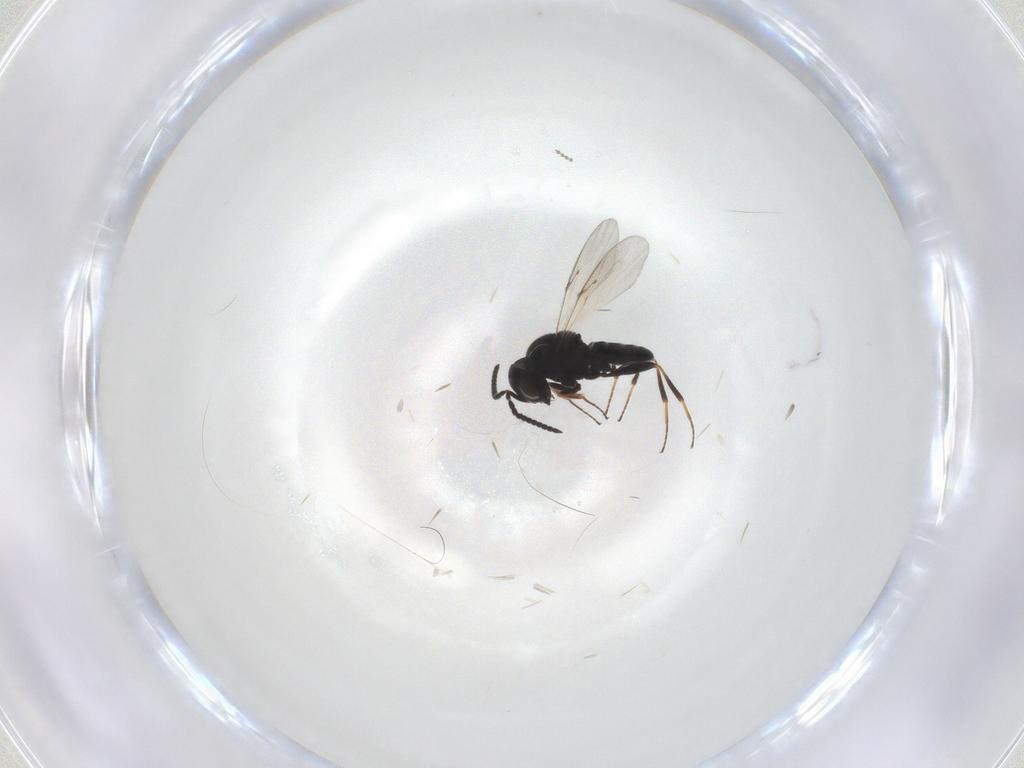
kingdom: Animalia
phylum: Arthropoda
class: Insecta
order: Hymenoptera
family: Scelionidae
